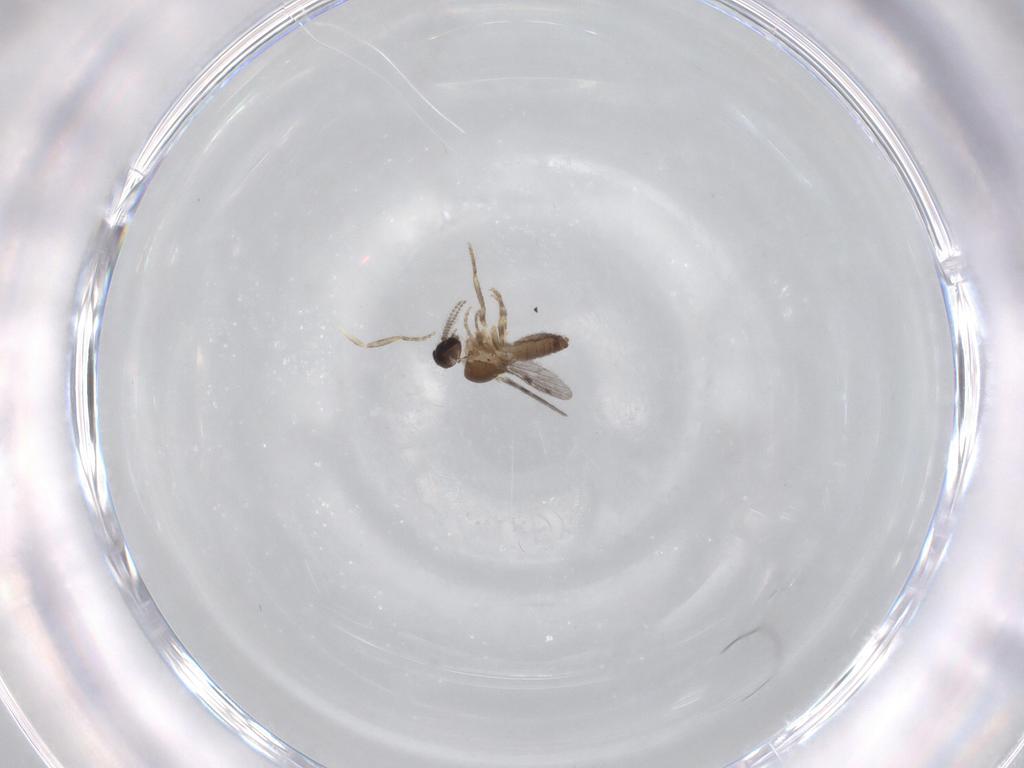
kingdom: Animalia
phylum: Arthropoda
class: Insecta
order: Diptera
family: Ceratopogonidae
